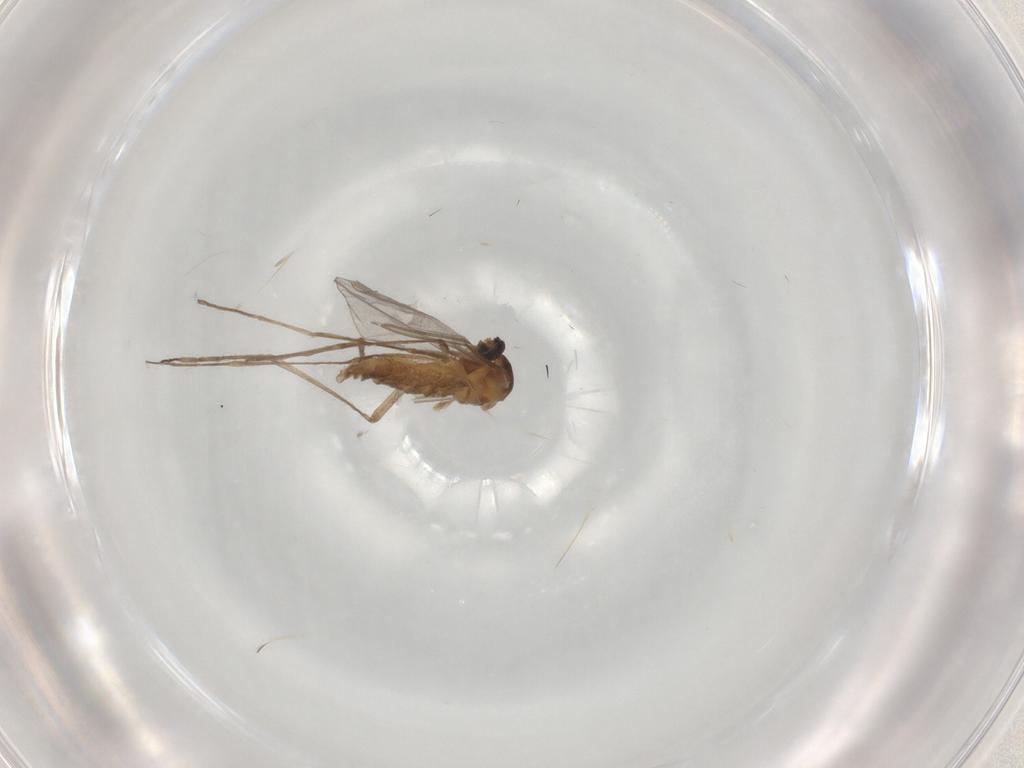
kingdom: Animalia
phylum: Arthropoda
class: Insecta
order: Diptera
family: Cecidomyiidae
